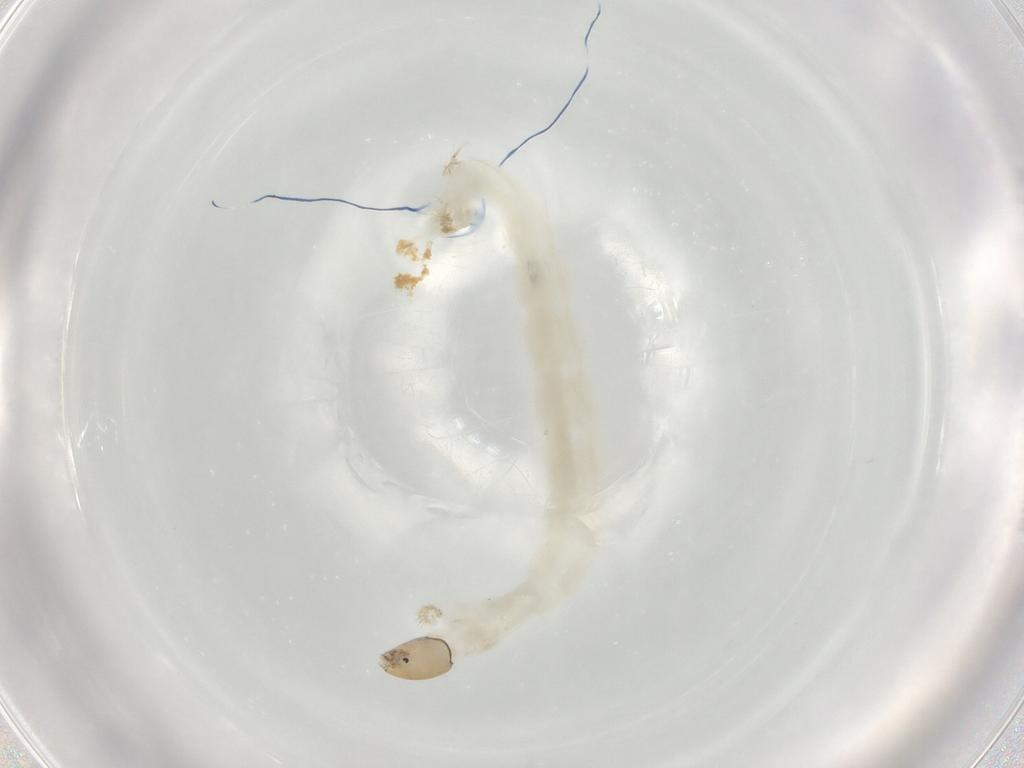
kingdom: Animalia
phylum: Arthropoda
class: Insecta
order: Diptera
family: Chironomidae
